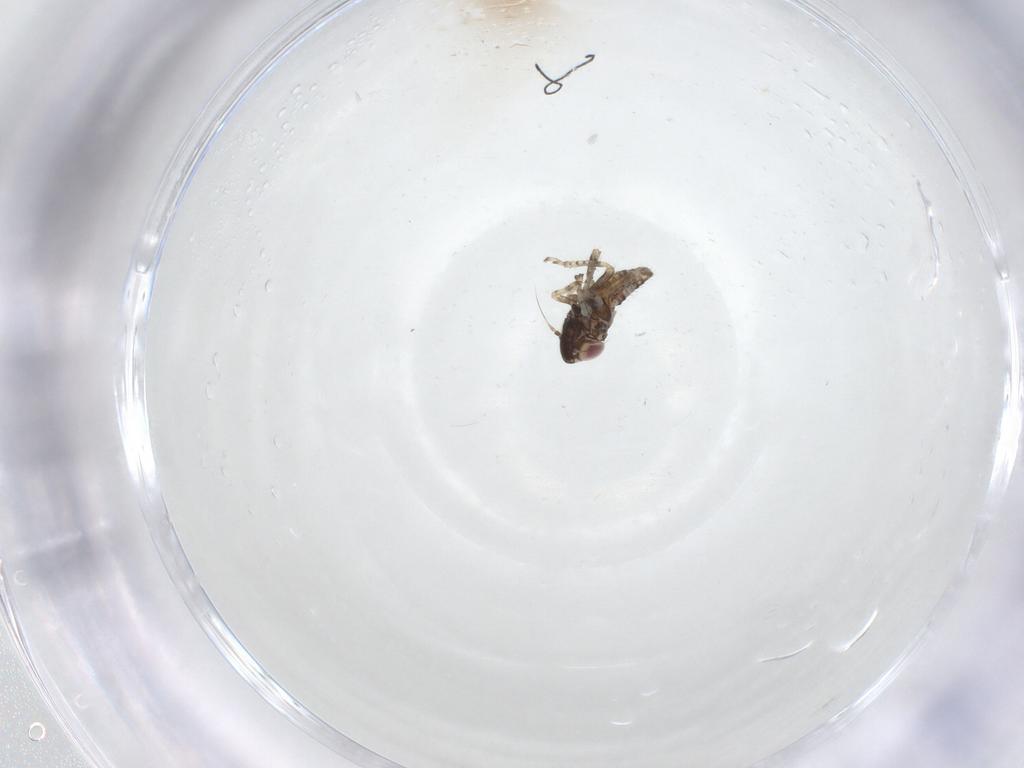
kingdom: Animalia
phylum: Arthropoda
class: Insecta
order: Hemiptera
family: Cicadellidae
